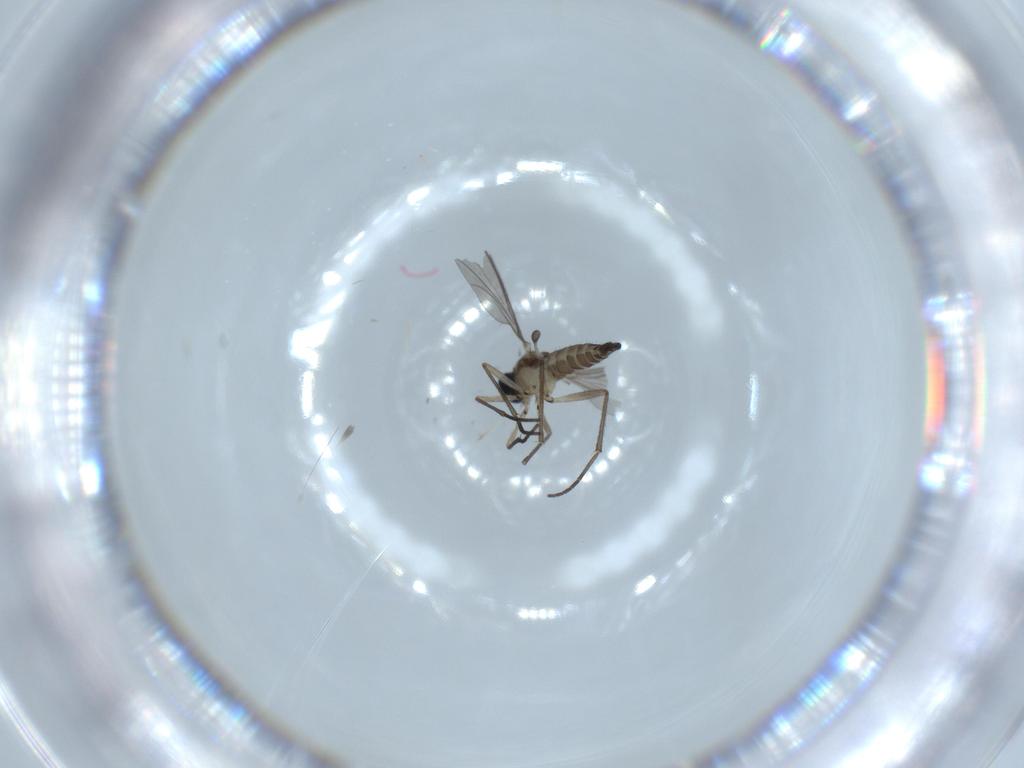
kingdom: Animalia
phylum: Arthropoda
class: Insecta
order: Diptera
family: Sciaridae
